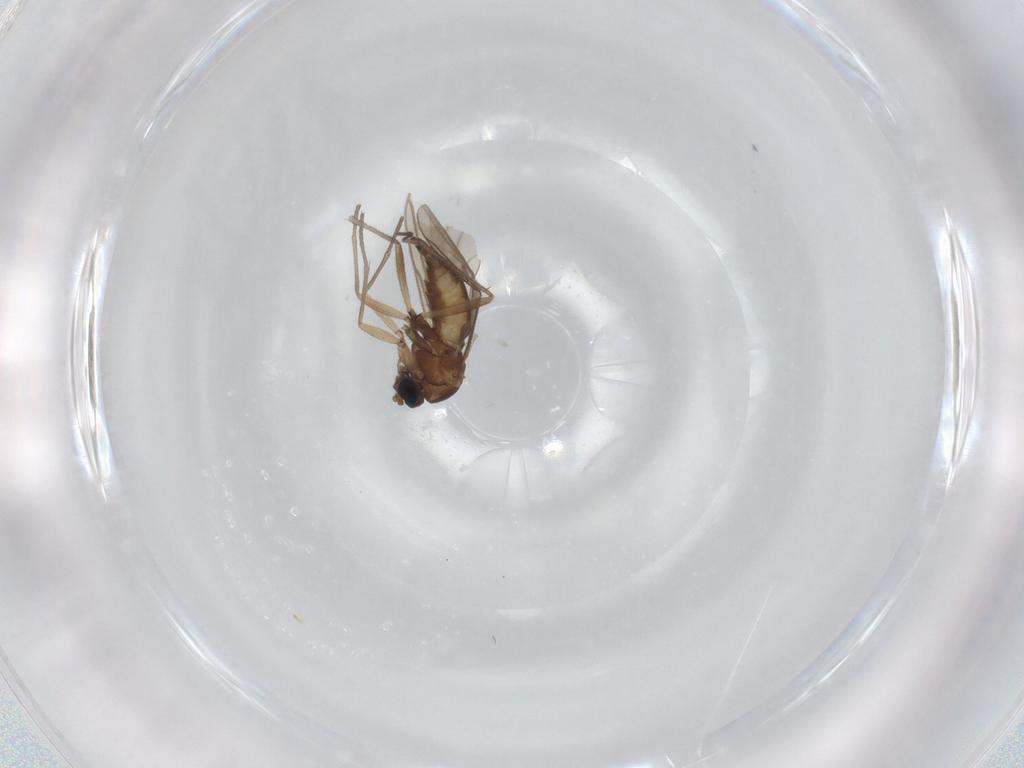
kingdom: Animalia
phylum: Arthropoda
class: Insecta
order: Diptera
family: Sciaridae
